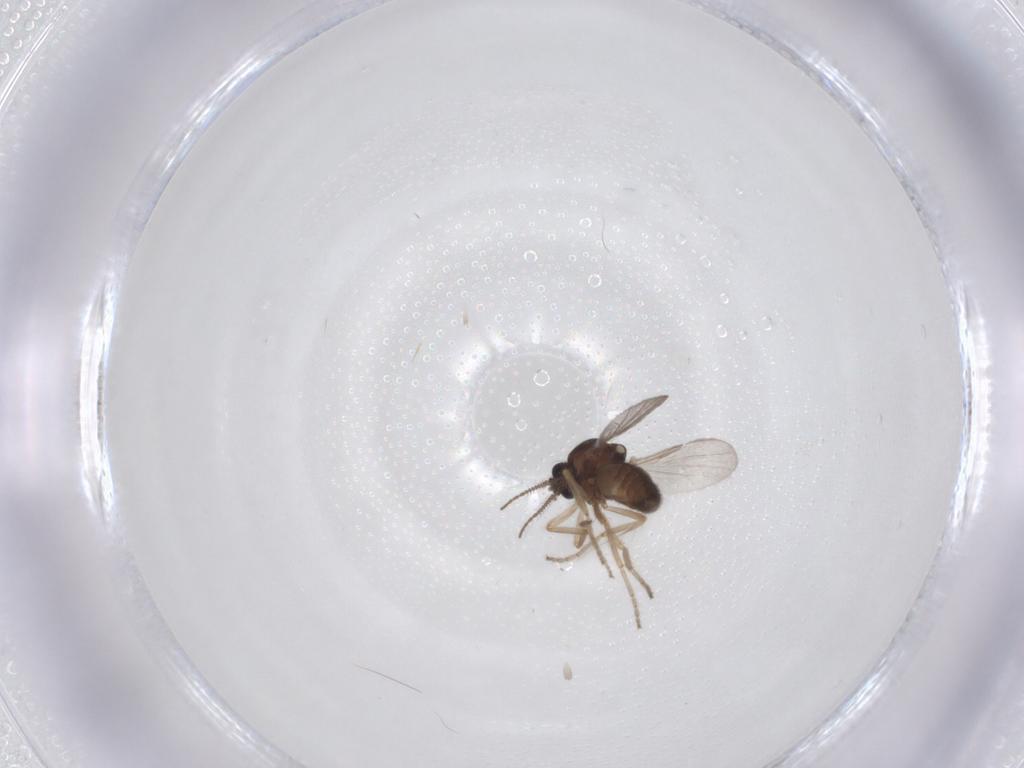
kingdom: Animalia
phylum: Arthropoda
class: Insecta
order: Diptera
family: Ceratopogonidae
